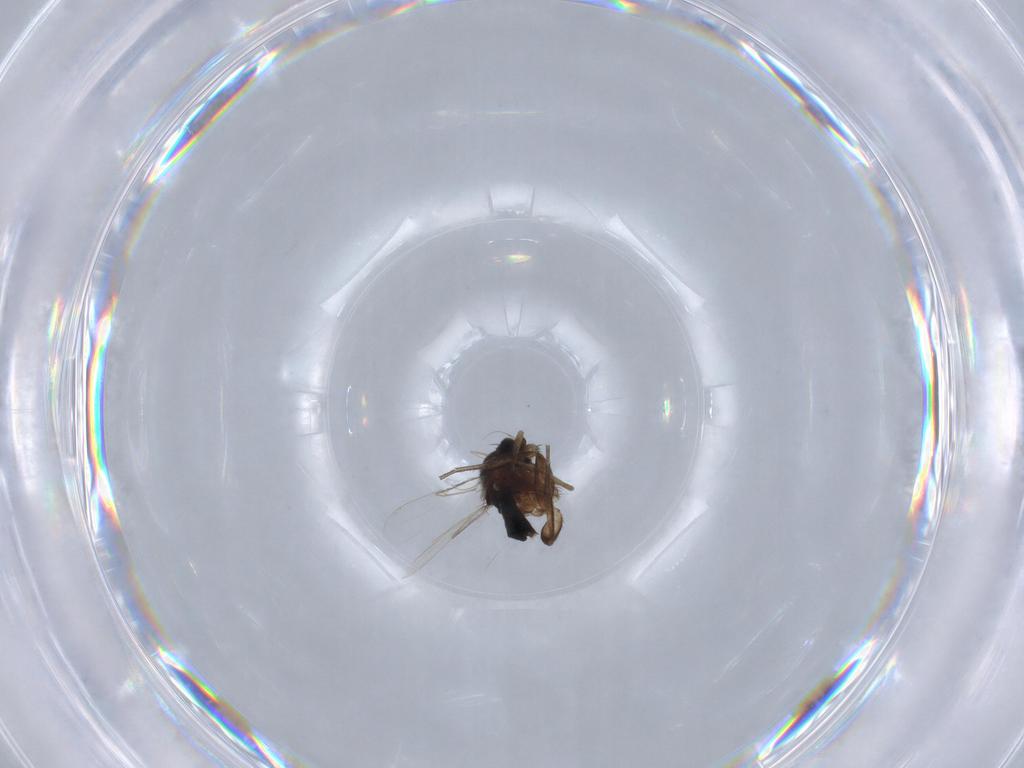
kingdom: Animalia
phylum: Arthropoda
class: Insecta
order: Diptera
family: Phoridae
